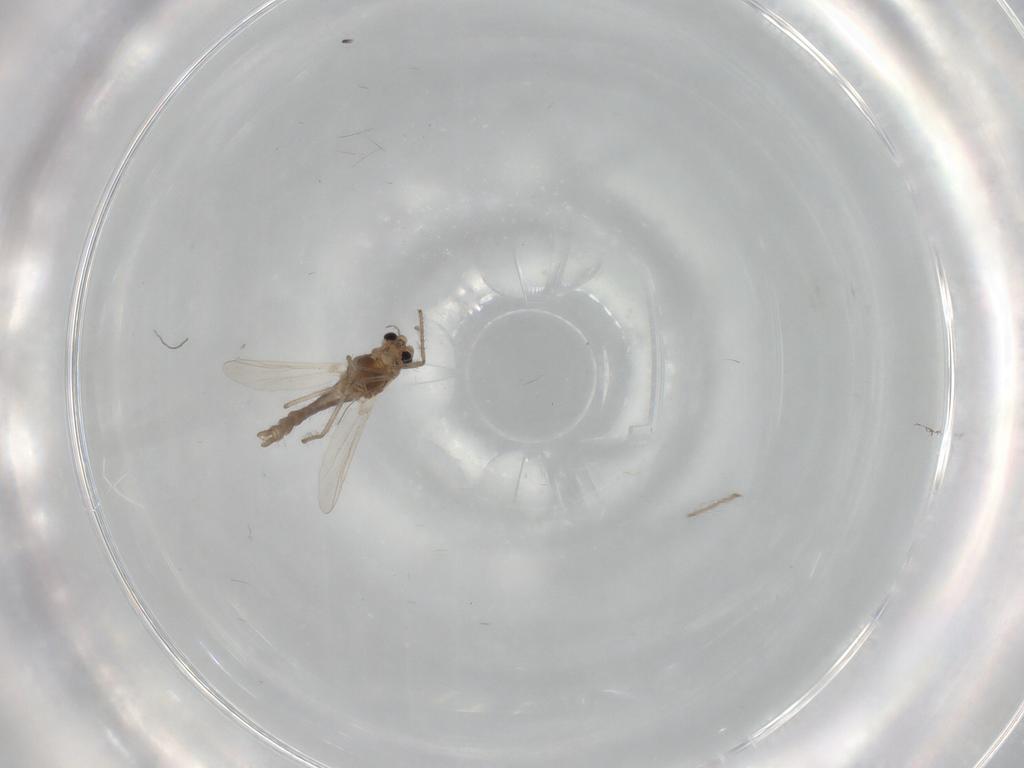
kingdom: Animalia
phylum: Arthropoda
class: Insecta
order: Diptera
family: Chironomidae
